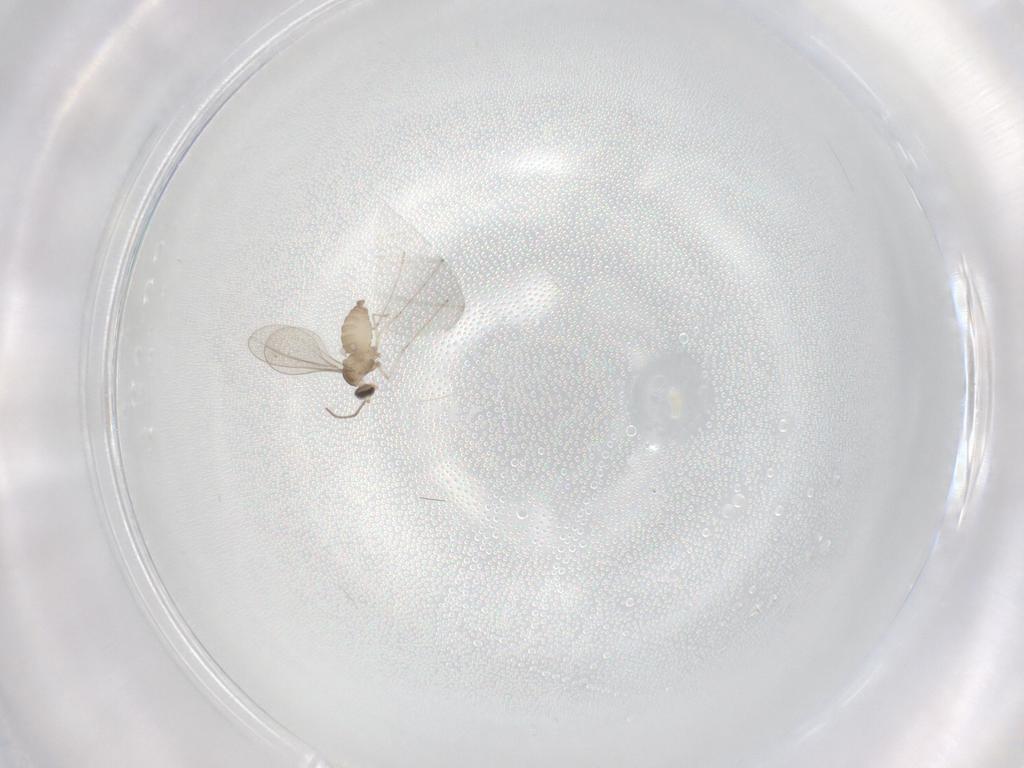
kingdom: Animalia
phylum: Arthropoda
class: Insecta
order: Diptera
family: Cecidomyiidae
